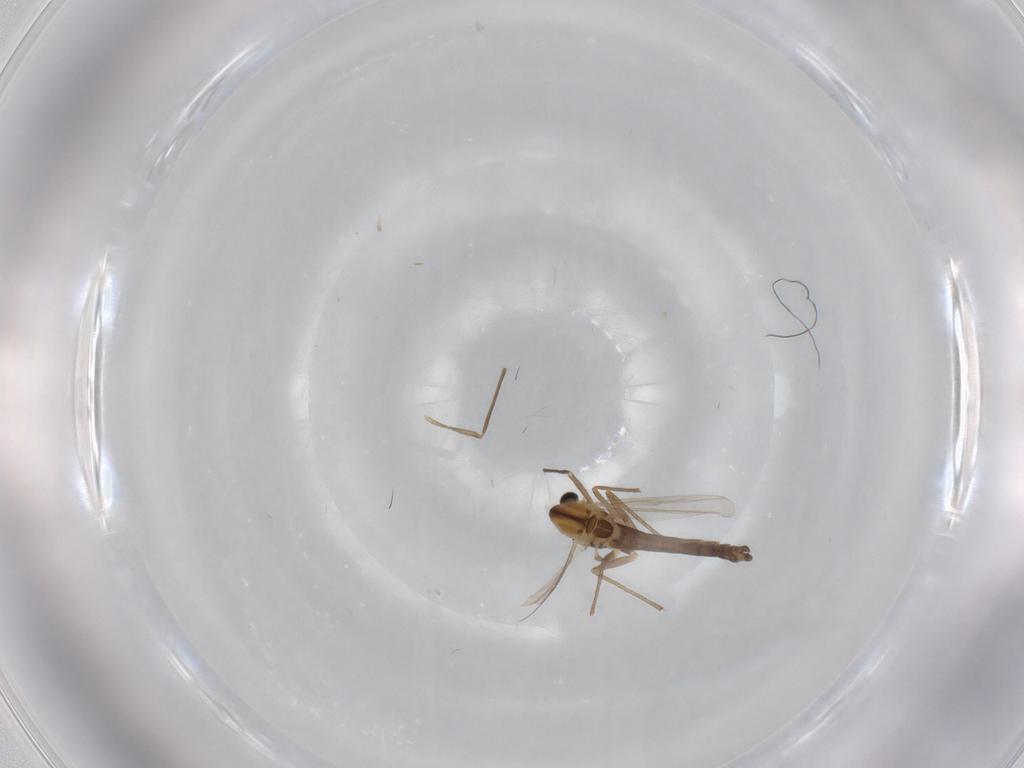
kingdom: Animalia
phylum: Arthropoda
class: Insecta
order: Diptera
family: Chironomidae
